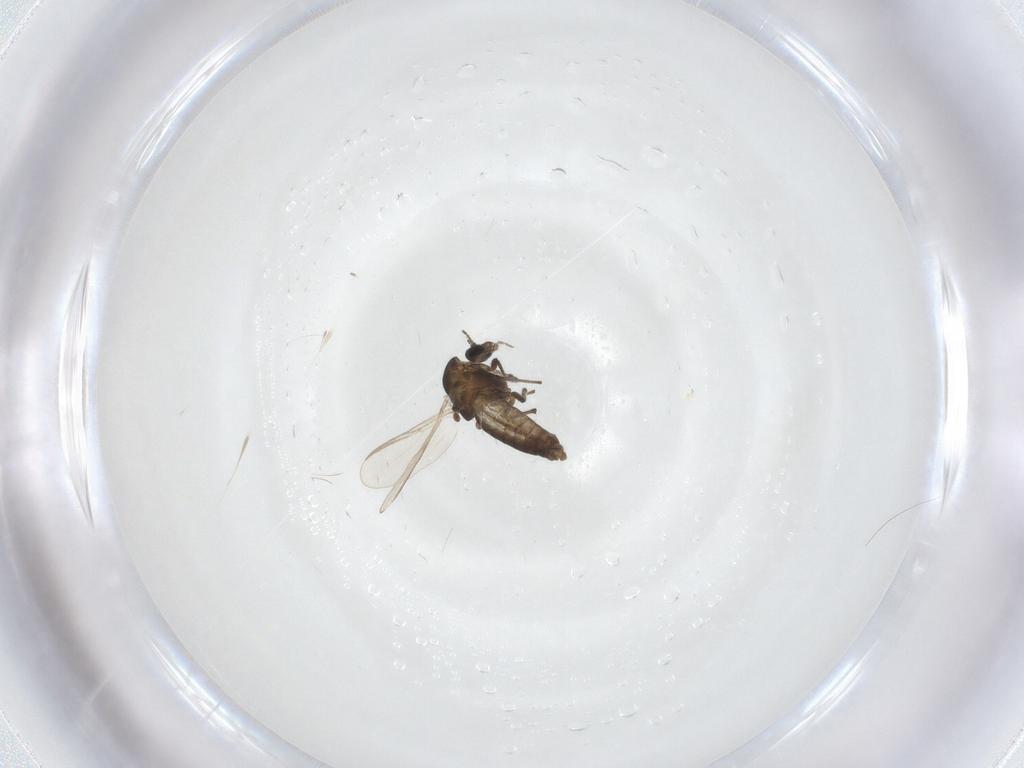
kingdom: Animalia
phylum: Arthropoda
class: Insecta
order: Diptera
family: Chironomidae
